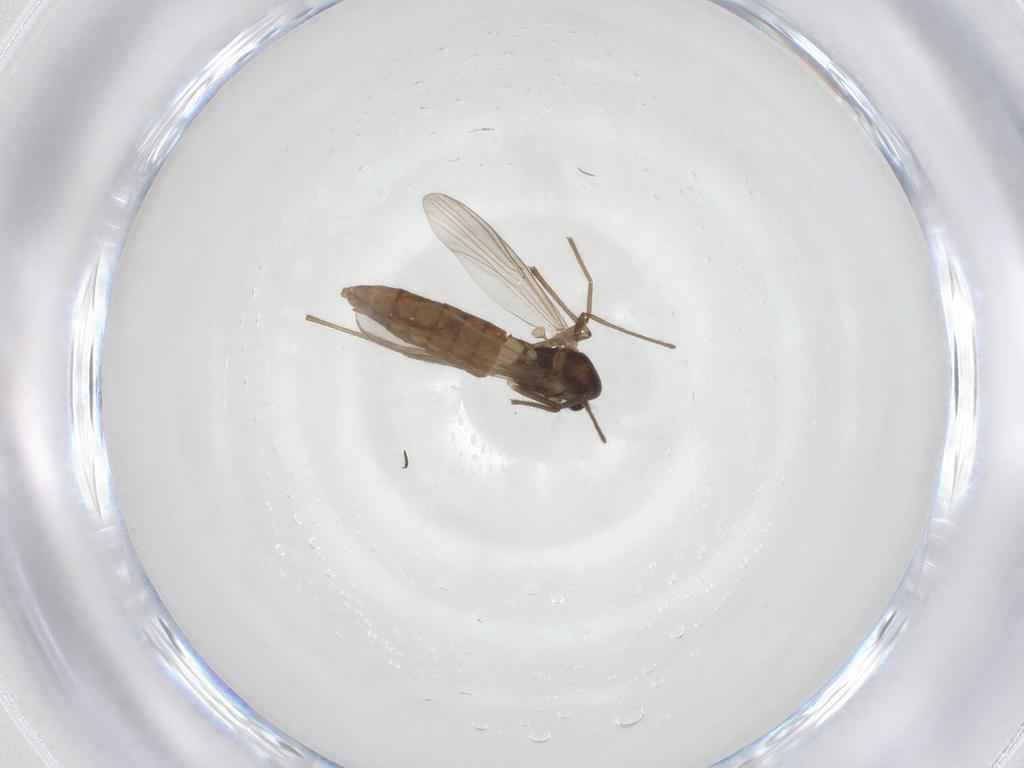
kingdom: Animalia
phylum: Arthropoda
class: Insecta
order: Diptera
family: Chironomidae
